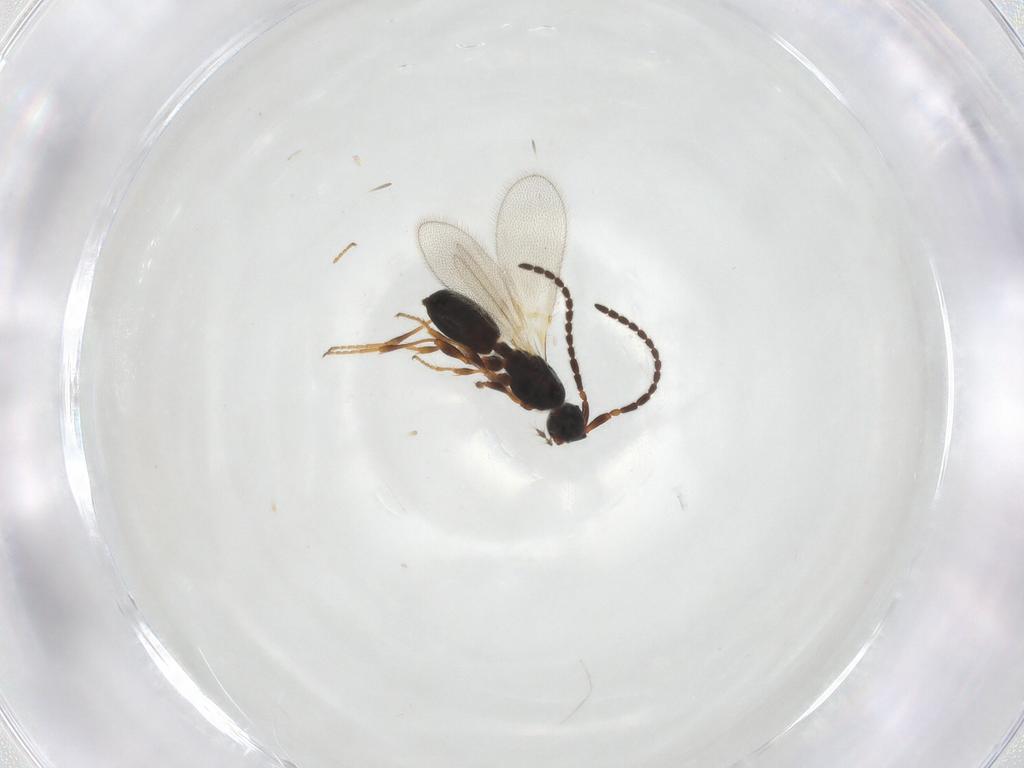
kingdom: Animalia
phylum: Arthropoda
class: Insecta
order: Hymenoptera
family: Diapriidae
